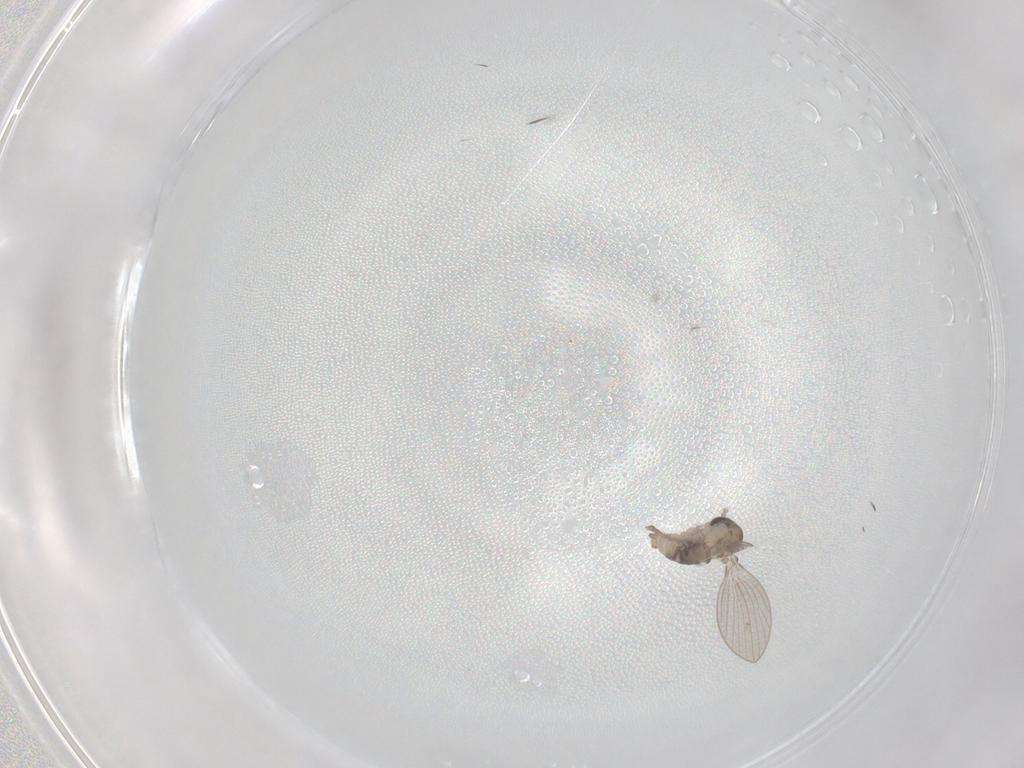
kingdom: Animalia
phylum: Arthropoda
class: Insecta
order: Diptera
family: Psychodidae
